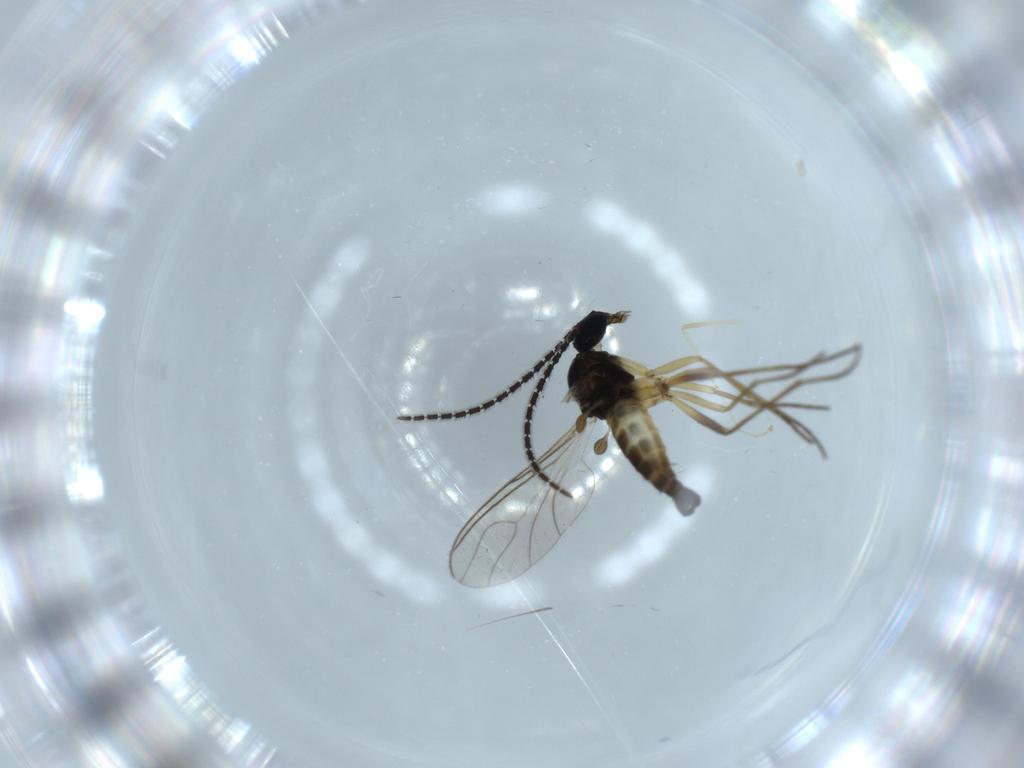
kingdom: Animalia
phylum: Arthropoda
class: Insecta
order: Diptera
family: Sciaridae
